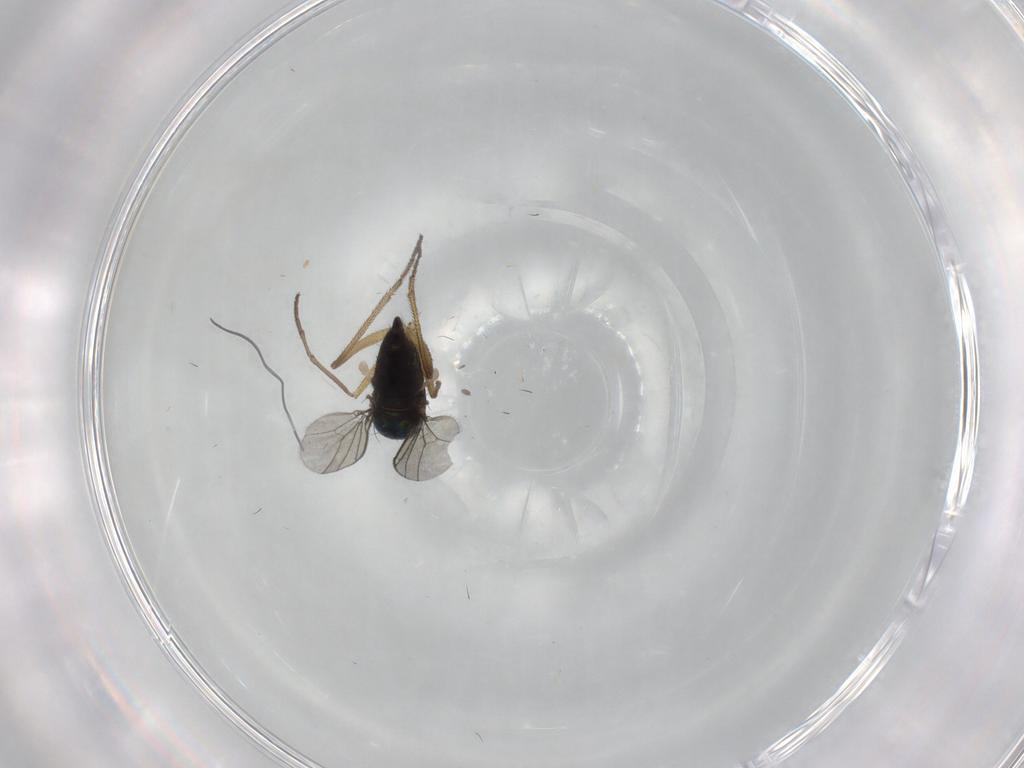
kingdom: Animalia
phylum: Arthropoda
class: Insecta
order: Diptera
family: Dolichopodidae
